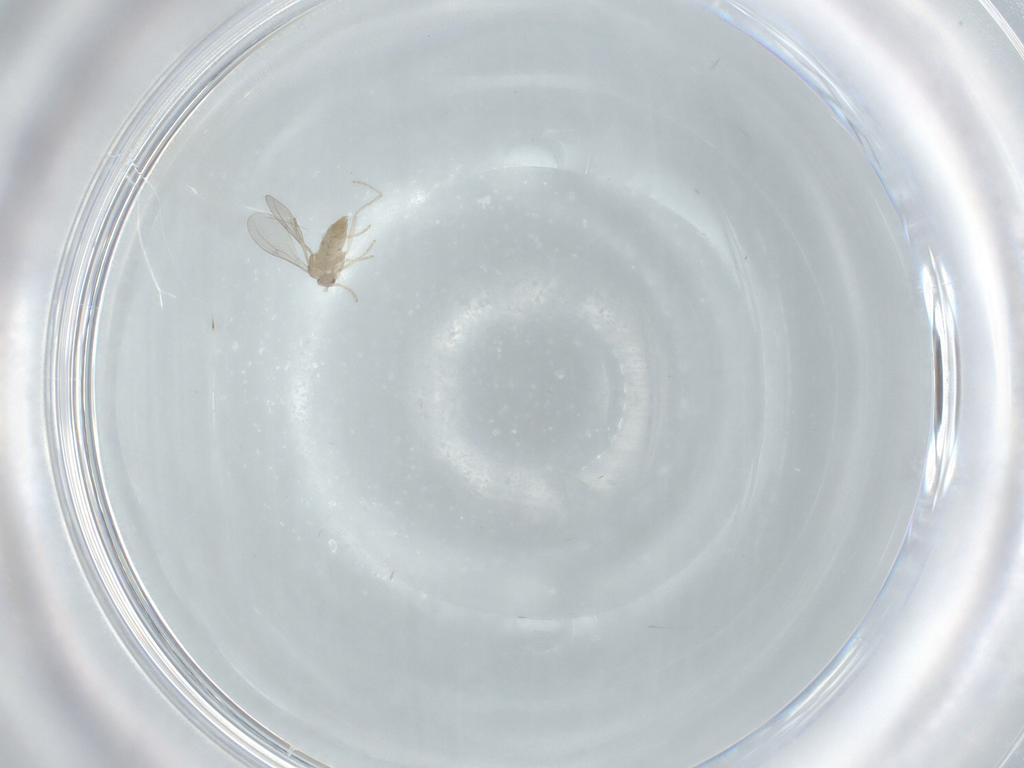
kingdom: Animalia
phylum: Arthropoda
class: Insecta
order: Diptera
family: Cecidomyiidae
